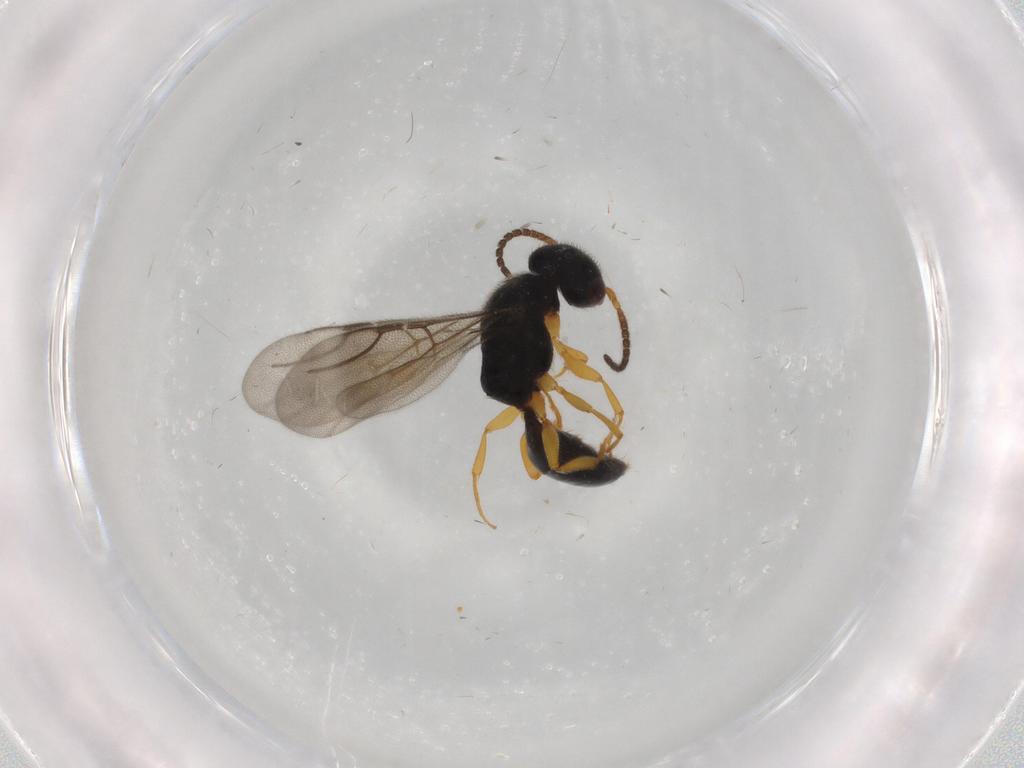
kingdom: Animalia
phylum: Arthropoda
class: Insecta
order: Hymenoptera
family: Bethylidae
